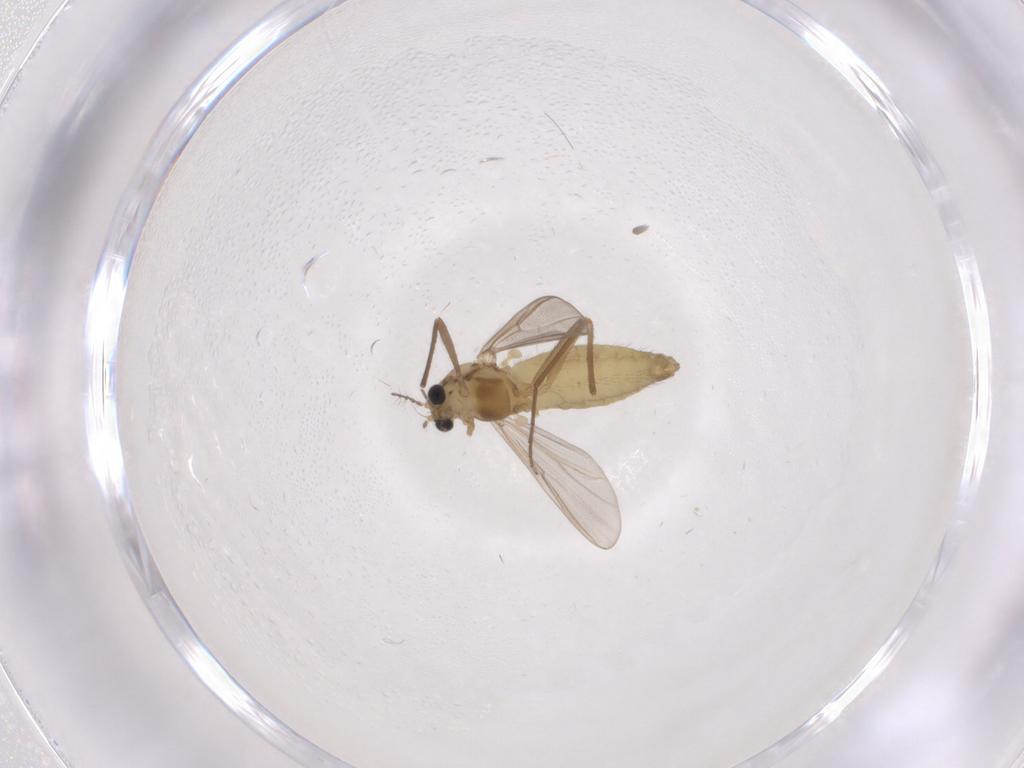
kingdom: Animalia
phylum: Arthropoda
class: Insecta
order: Diptera
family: Chironomidae
